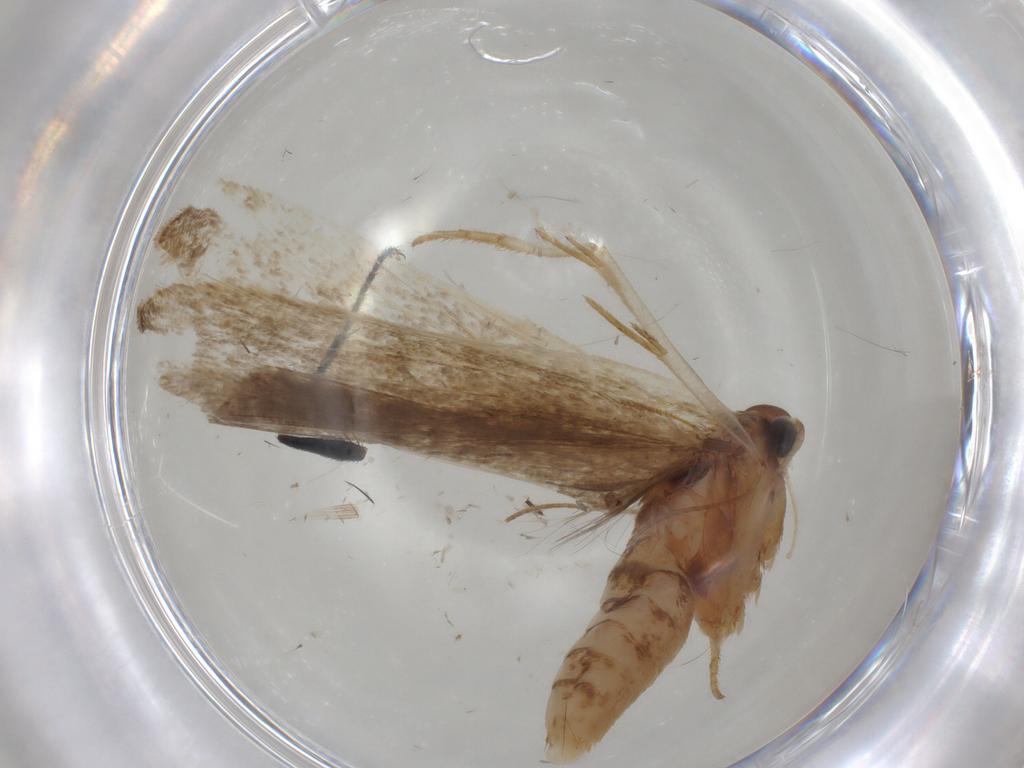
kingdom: Animalia
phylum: Arthropoda
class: Insecta
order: Lepidoptera
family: Gelechiidae
